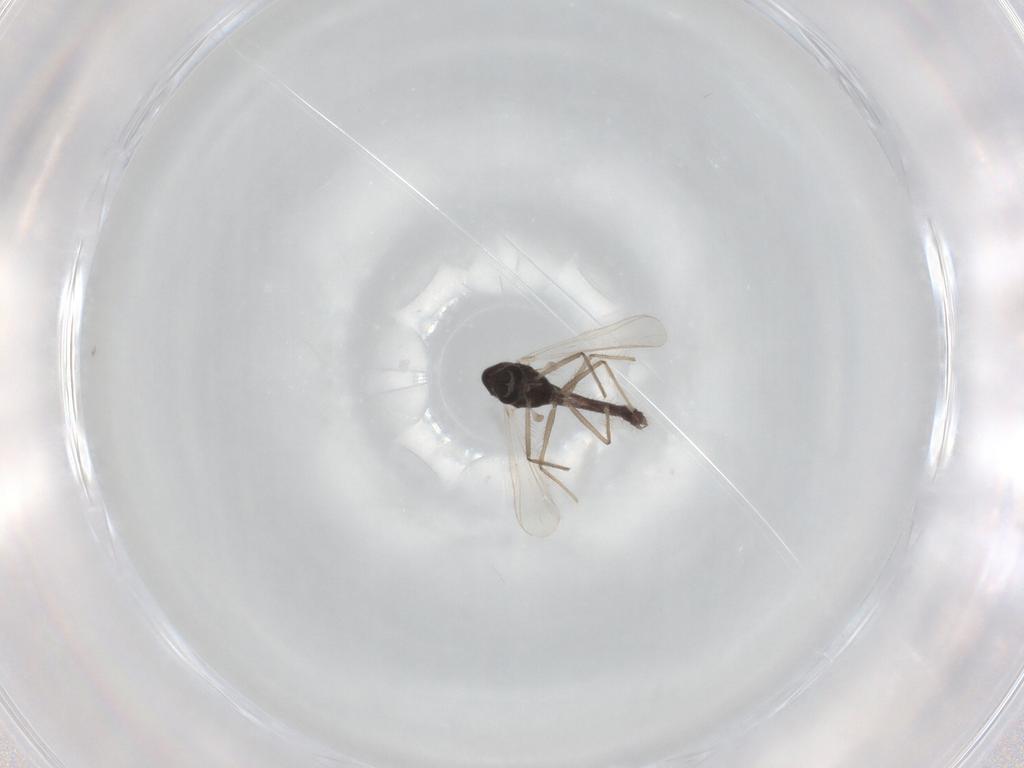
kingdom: Animalia
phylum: Arthropoda
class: Insecta
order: Diptera
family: Chironomidae
